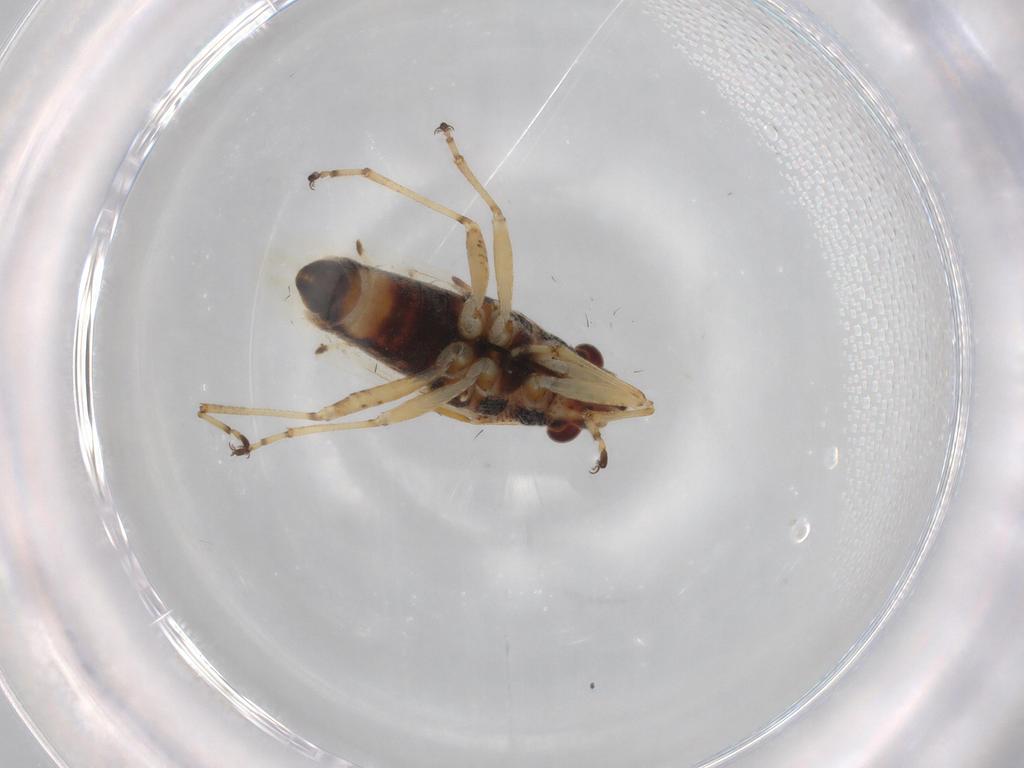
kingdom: Animalia
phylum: Arthropoda
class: Insecta
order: Hemiptera
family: Lygaeidae
